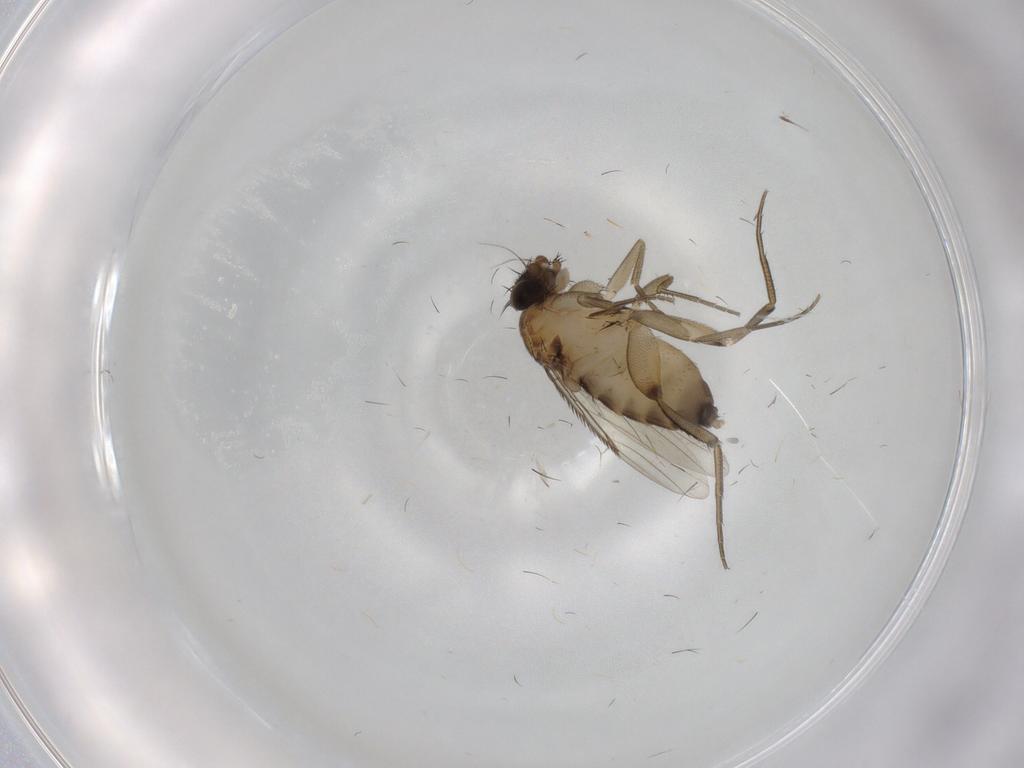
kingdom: Animalia
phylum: Arthropoda
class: Insecta
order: Diptera
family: Phoridae
